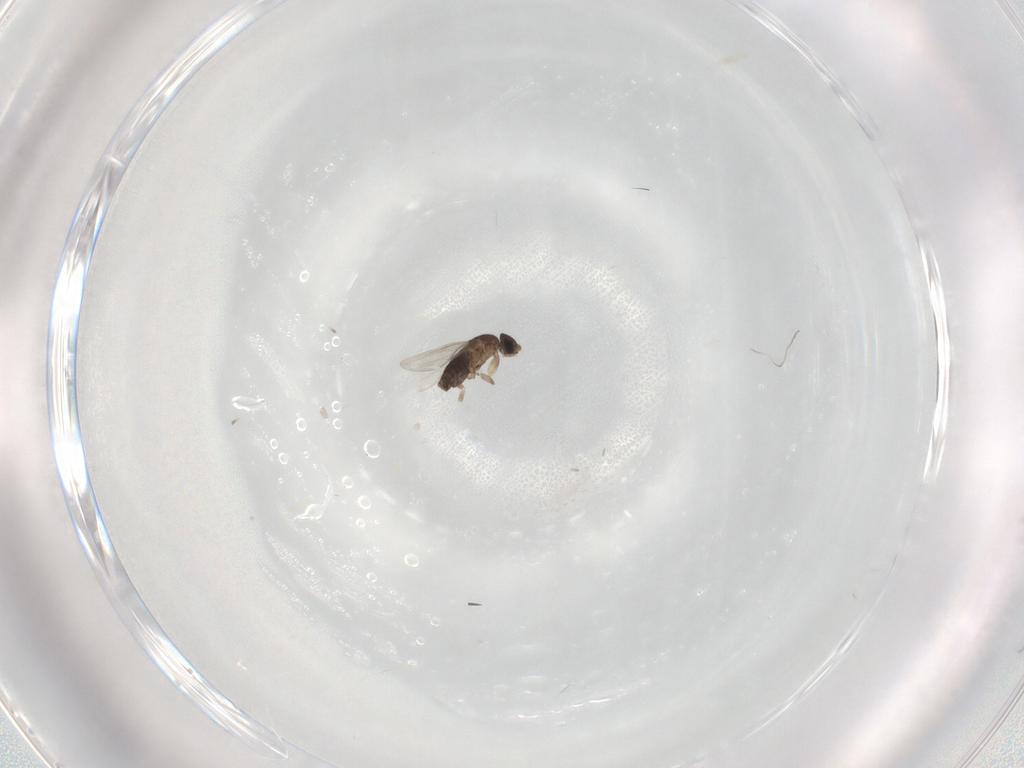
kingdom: Animalia
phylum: Arthropoda
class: Insecta
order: Diptera
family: Phoridae
